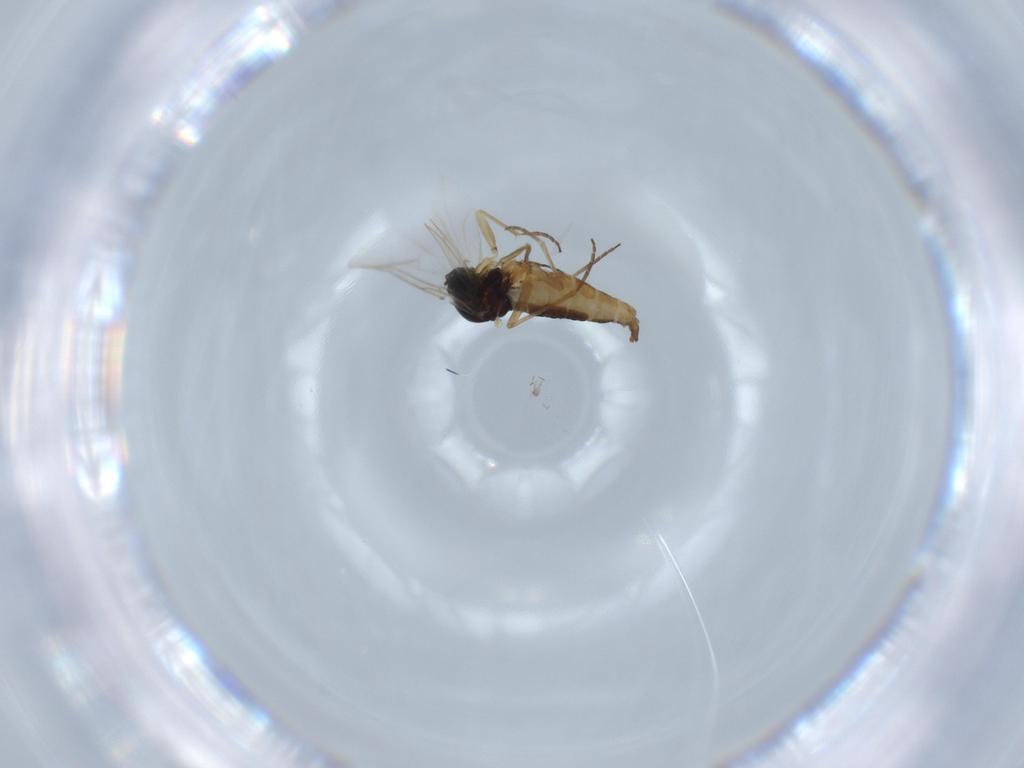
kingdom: Animalia
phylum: Arthropoda
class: Insecta
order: Diptera
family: Sciaridae
